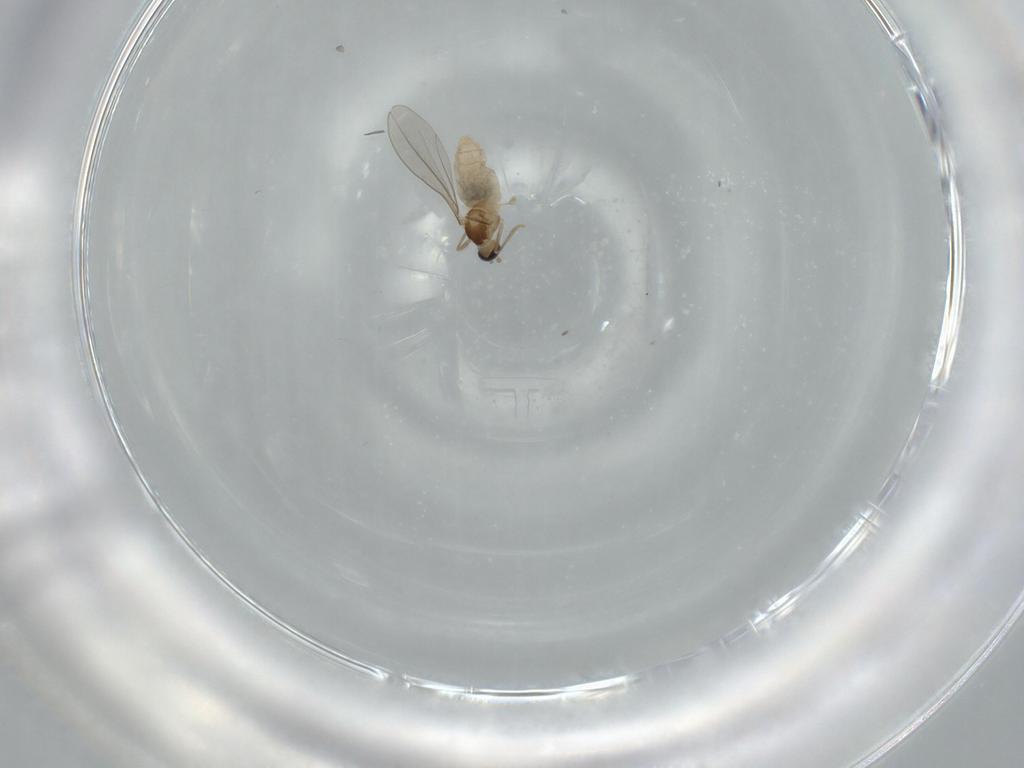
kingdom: Animalia
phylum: Arthropoda
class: Insecta
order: Diptera
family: Cecidomyiidae
